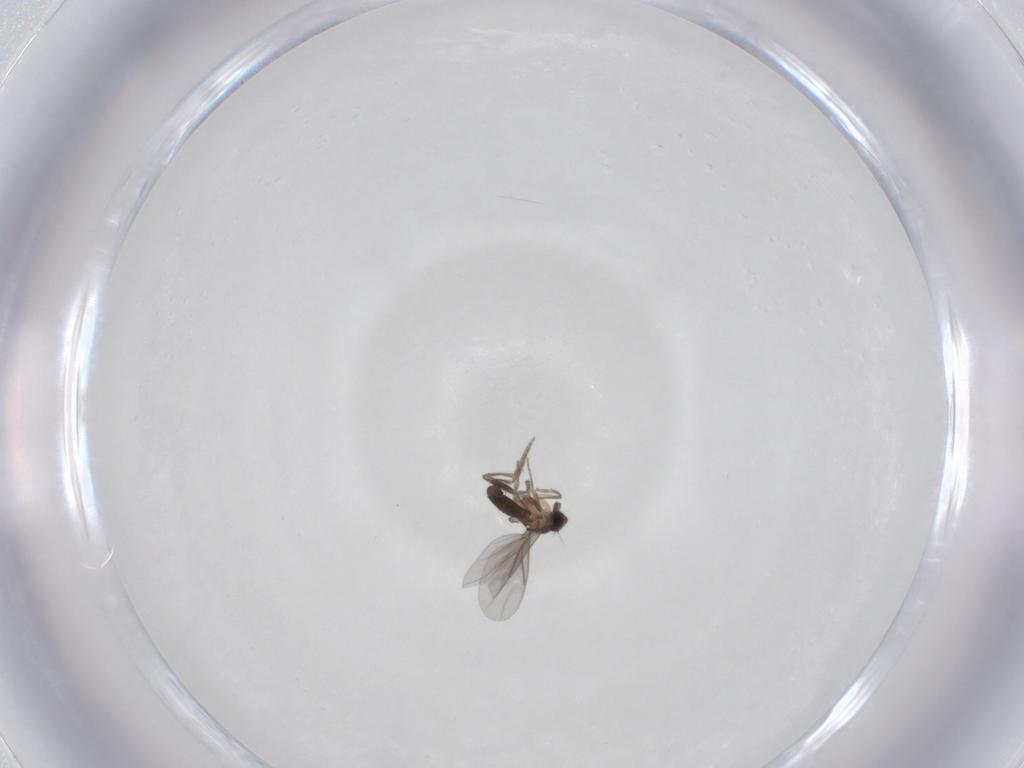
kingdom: Animalia
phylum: Arthropoda
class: Insecta
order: Diptera
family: Phoridae
